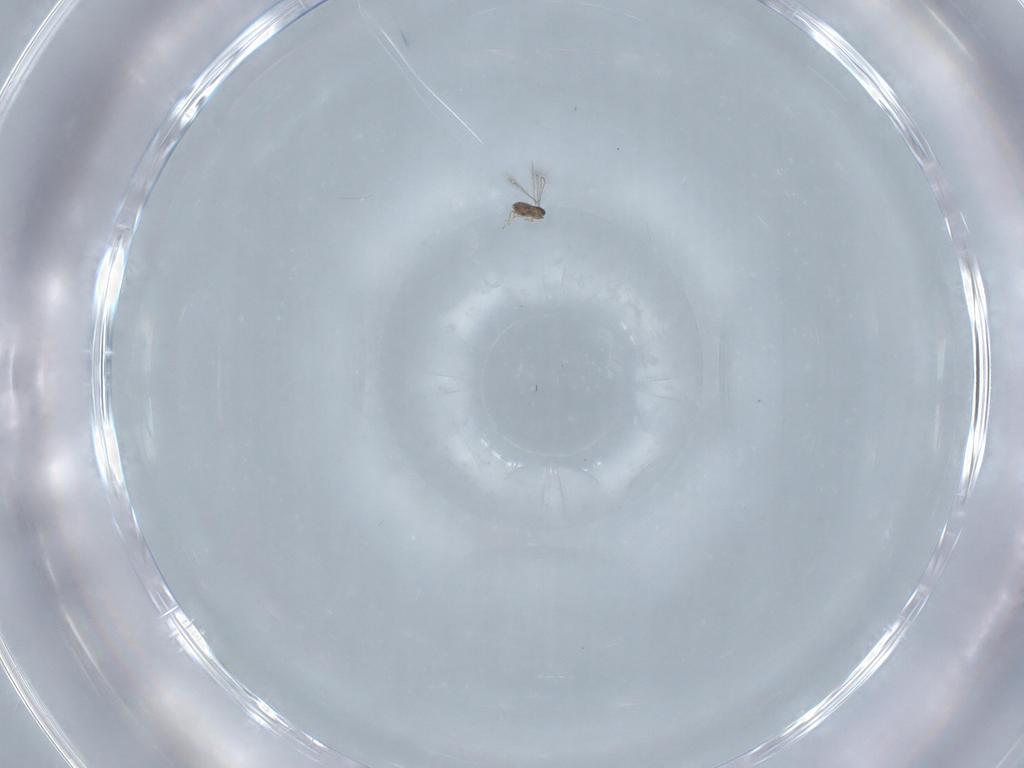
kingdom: Animalia
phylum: Arthropoda
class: Insecta
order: Hymenoptera
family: Mymaridae
